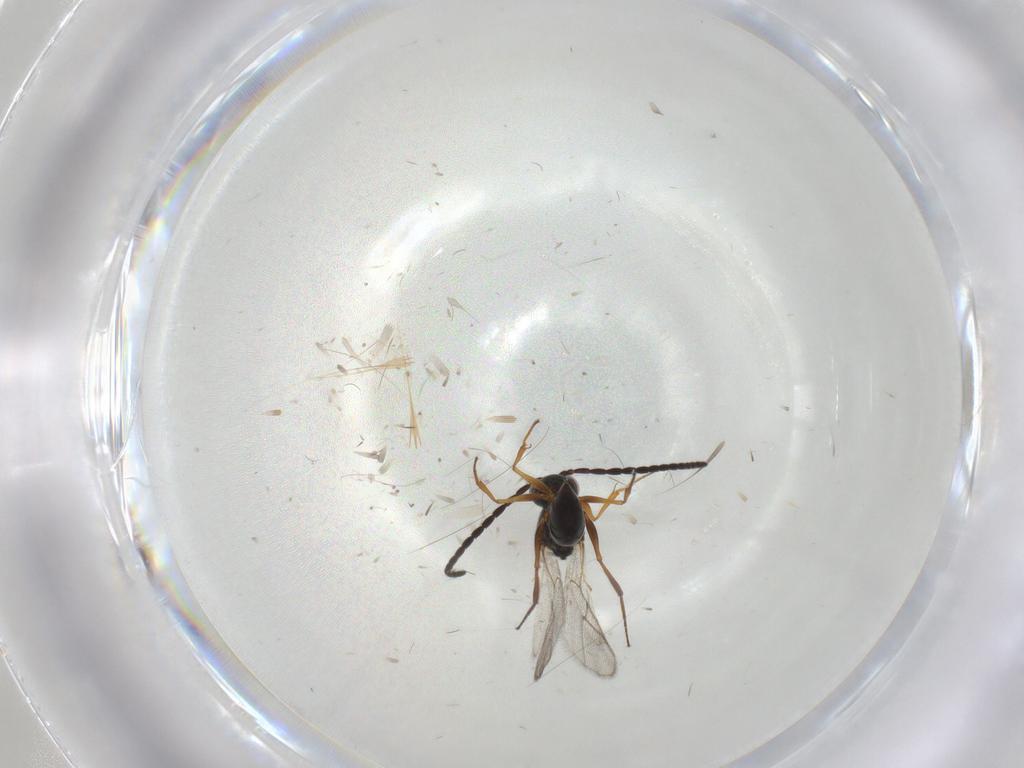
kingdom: Animalia
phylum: Arthropoda
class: Insecta
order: Hymenoptera
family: Figitidae
